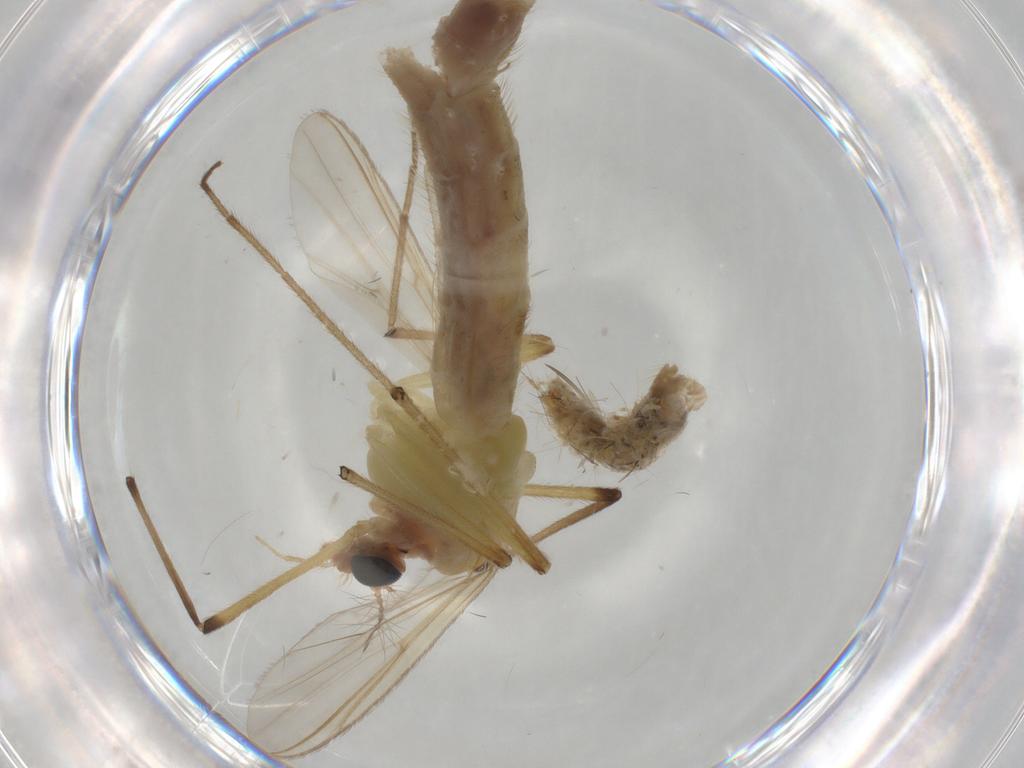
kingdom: Animalia
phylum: Arthropoda
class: Insecta
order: Diptera
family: Chironomidae
